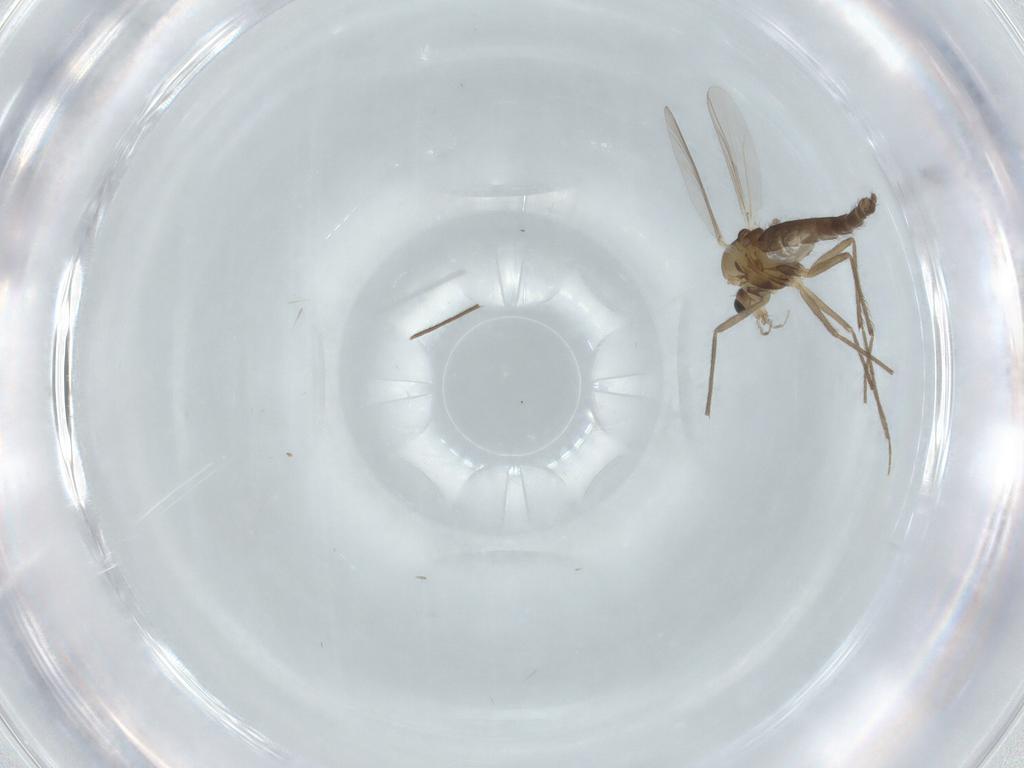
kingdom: Animalia
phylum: Arthropoda
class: Insecta
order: Diptera
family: Chironomidae
